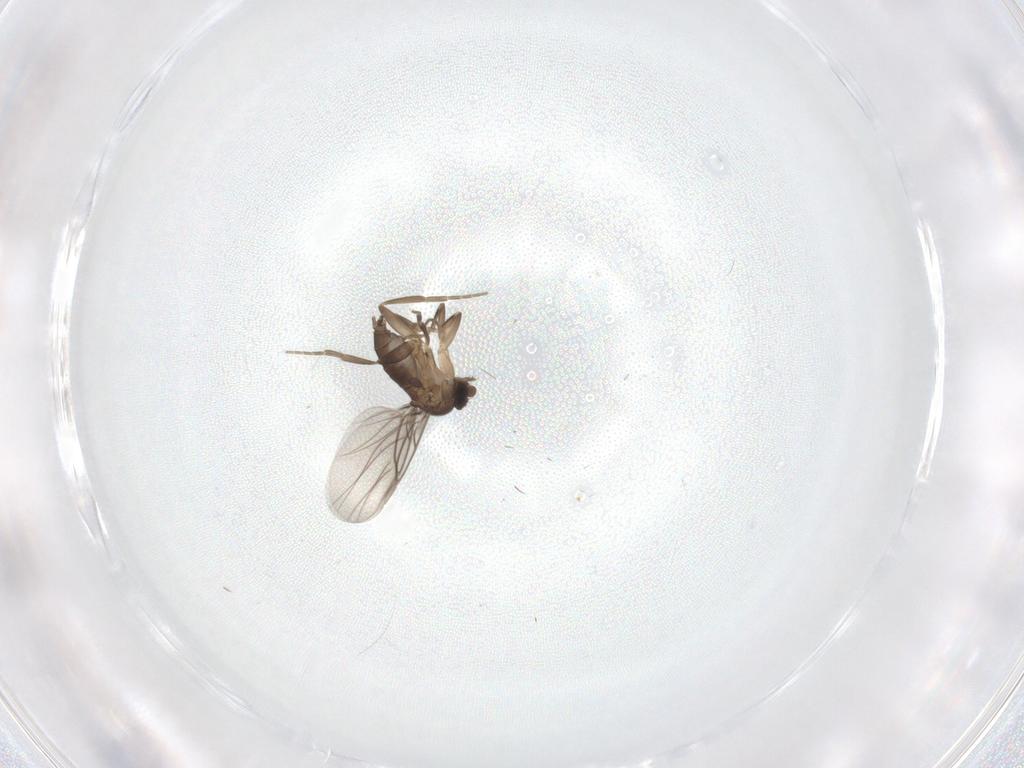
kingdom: Animalia
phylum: Arthropoda
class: Insecta
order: Diptera
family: Phoridae
